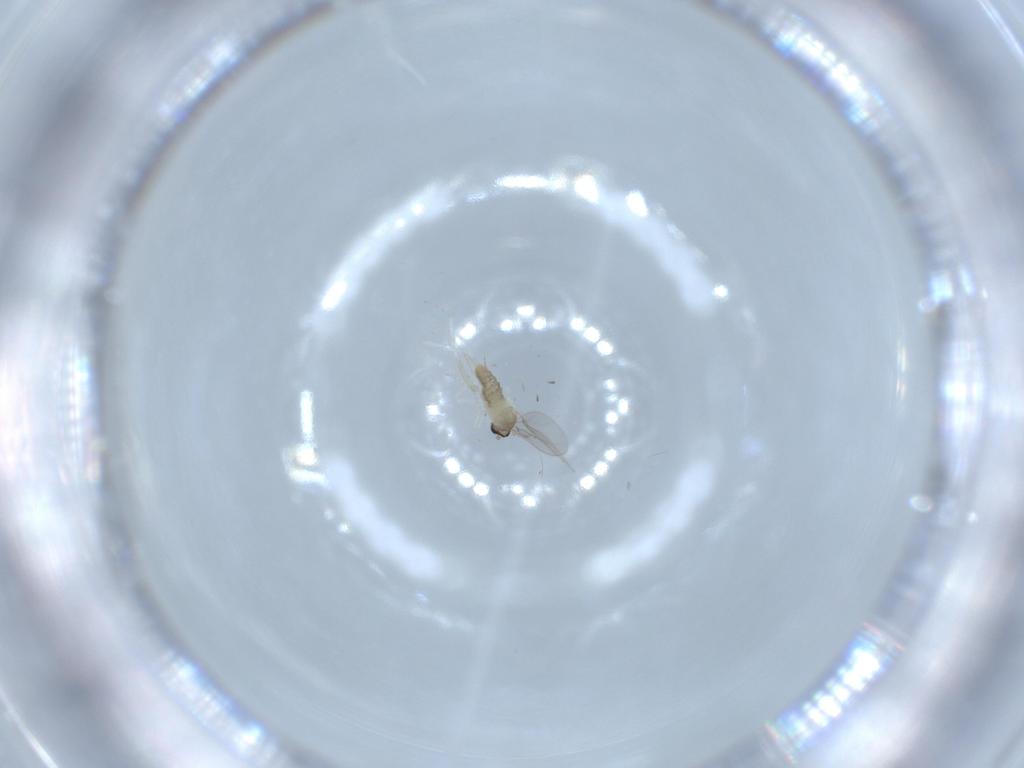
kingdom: Animalia
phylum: Arthropoda
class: Insecta
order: Diptera
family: Cecidomyiidae
